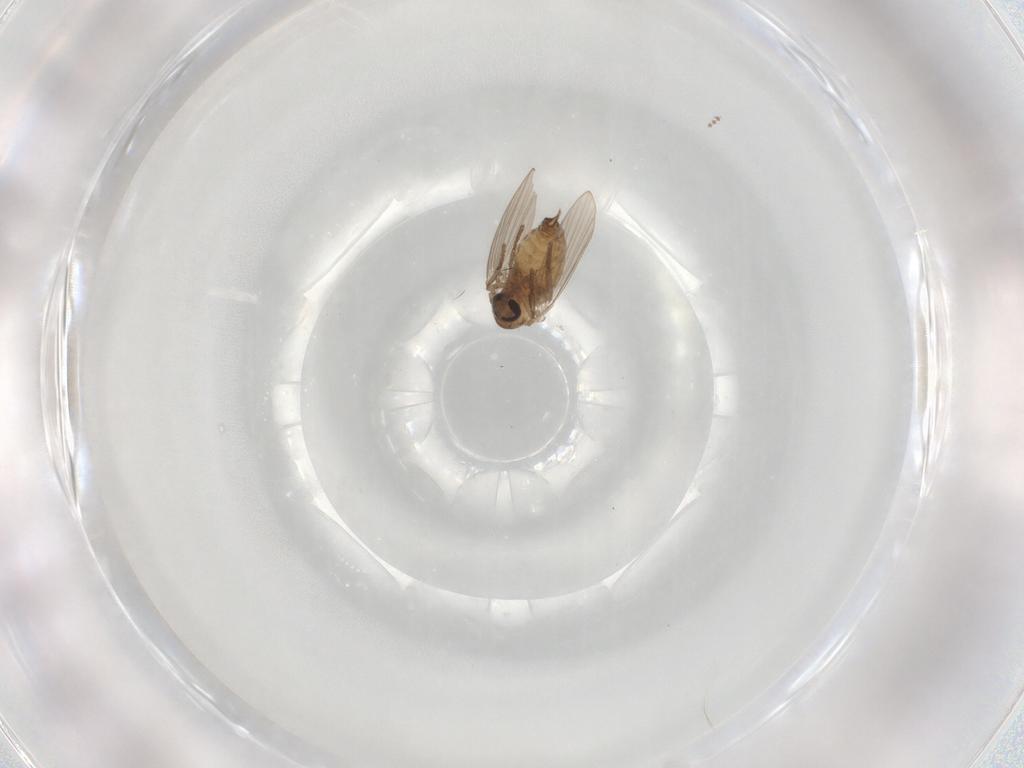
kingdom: Animalia
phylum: Arthropoda
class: Insecta
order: Diptera
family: Psychodidae
